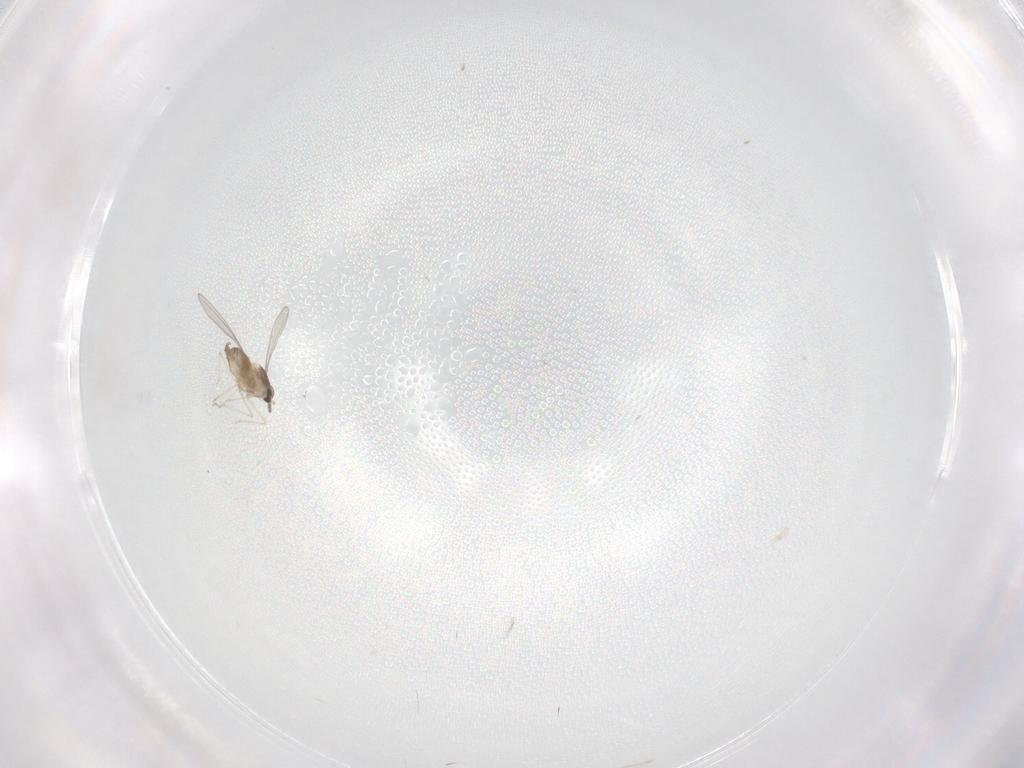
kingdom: Animalia
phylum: Arthropoda
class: Insecta
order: Diptera
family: Cecidomyiidae
